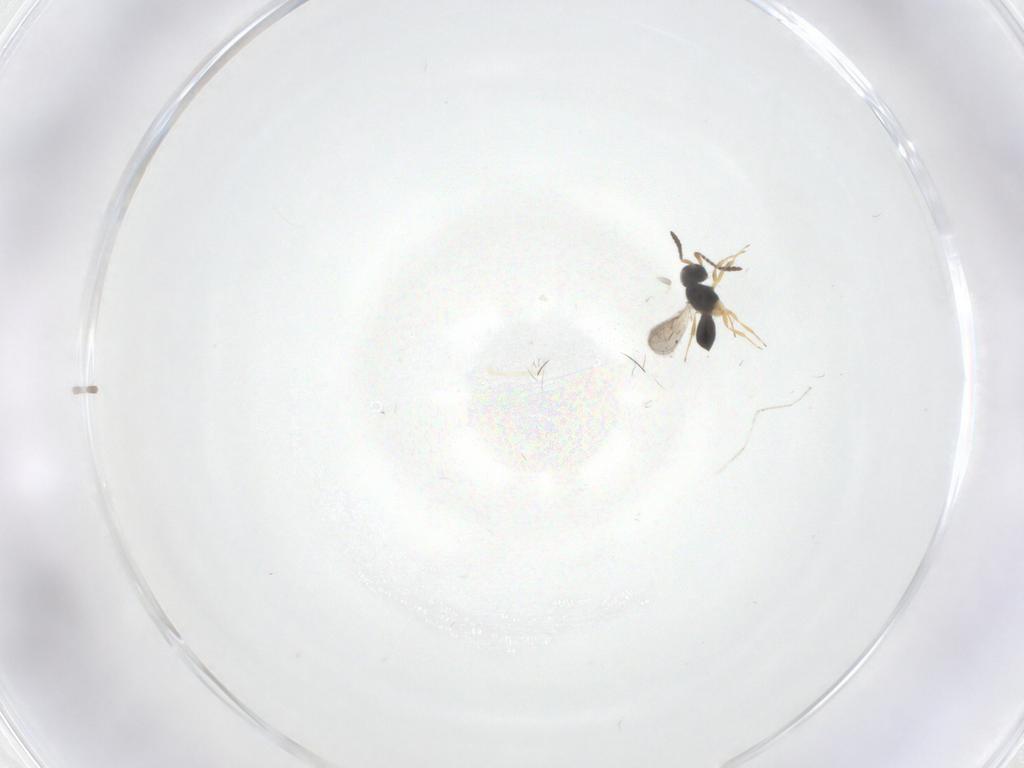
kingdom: Animalia
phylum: Arthropoda
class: Insecta
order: Hymenoptera
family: Scelionidae
